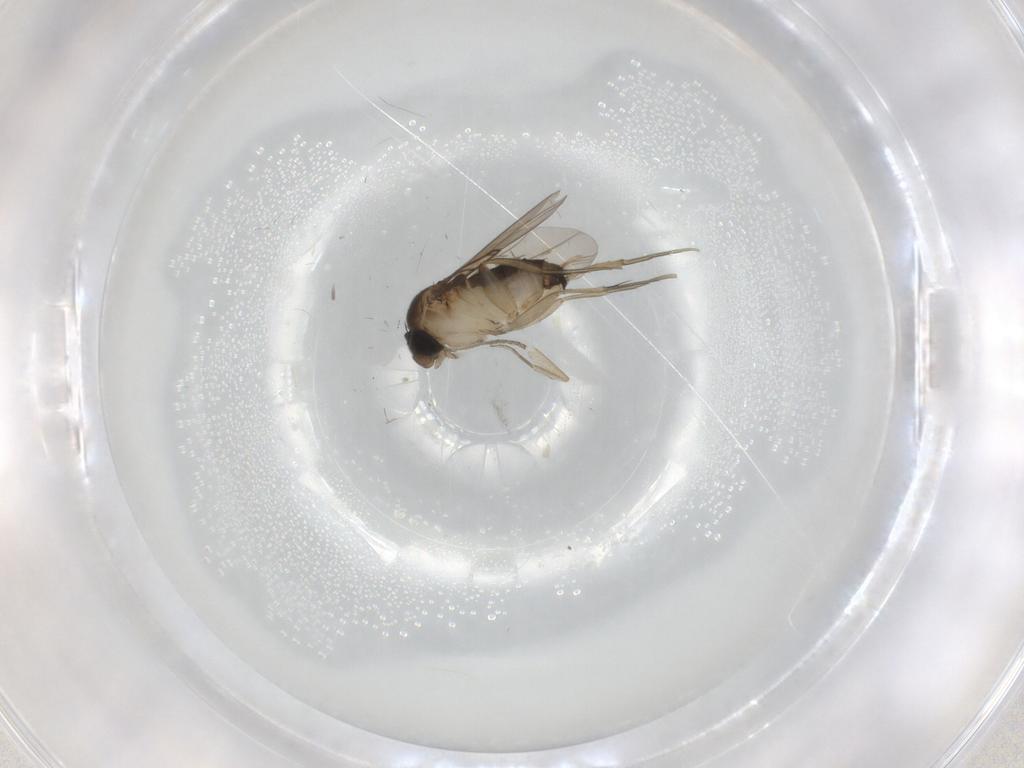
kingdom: Animalia
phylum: Arthropoda
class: Insecta
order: Diptera
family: Phoridae
